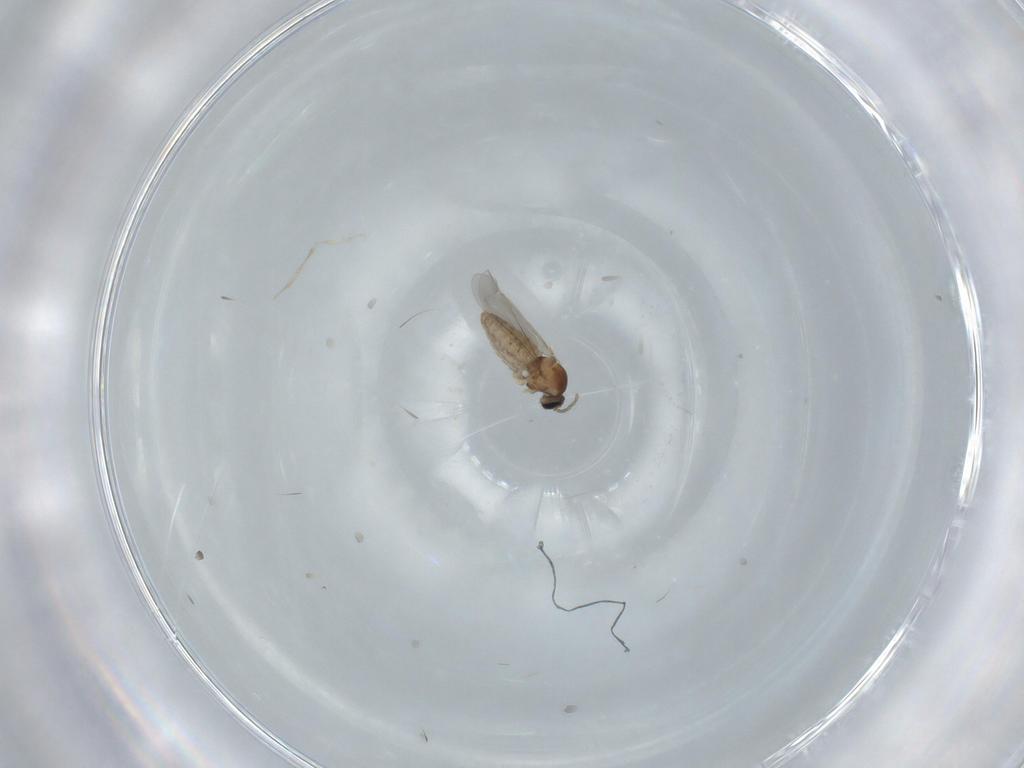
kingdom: Animalia
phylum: Arthropoda
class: Insecta
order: Diptera
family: Cecidomyiidae
